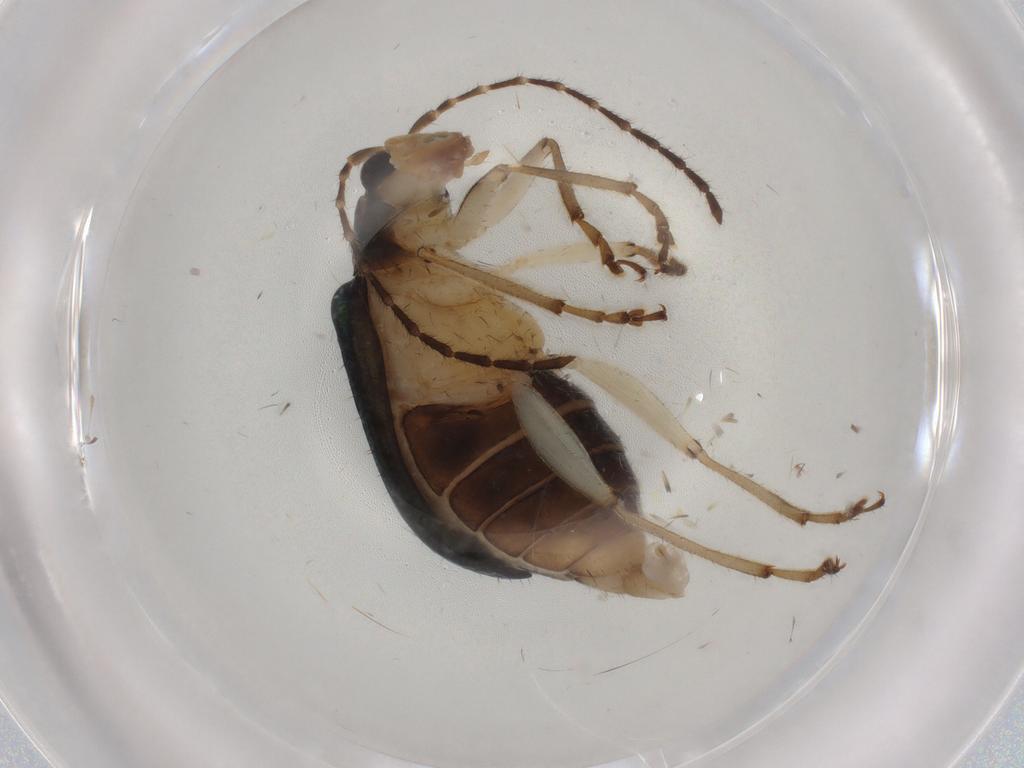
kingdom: Animalia
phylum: Arthropoda
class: Insecta
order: Coleoptera
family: Chrysomelidae
